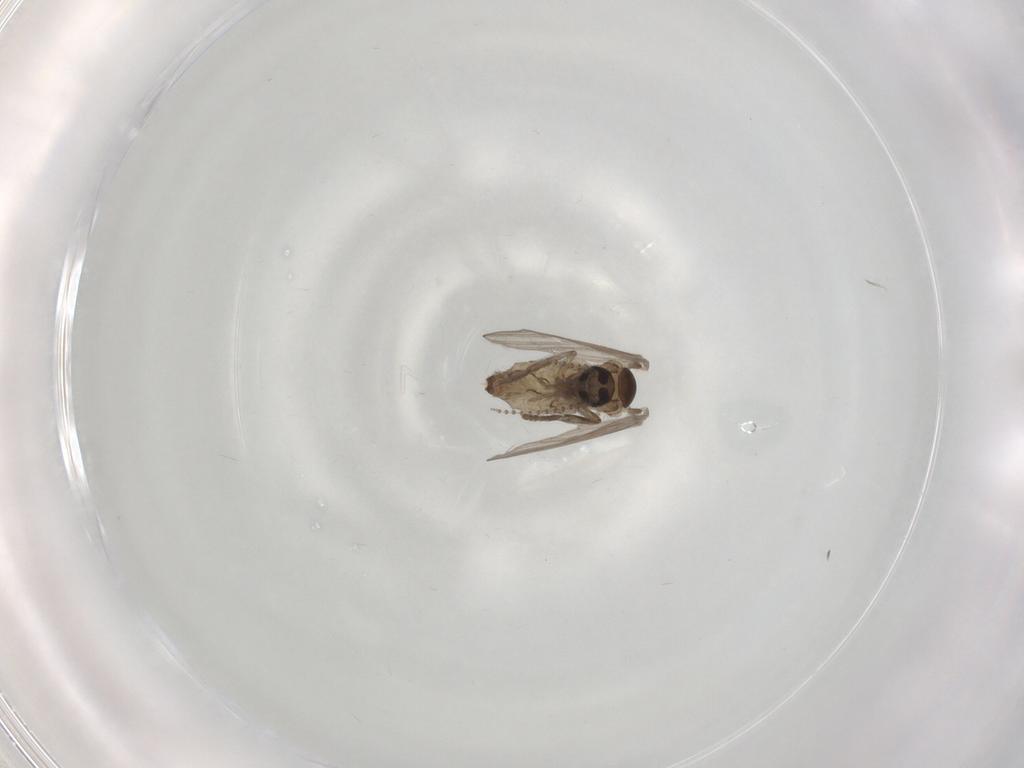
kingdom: Animalia
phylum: Arthropoda
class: Insecta
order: Diptera
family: Psychodidae
